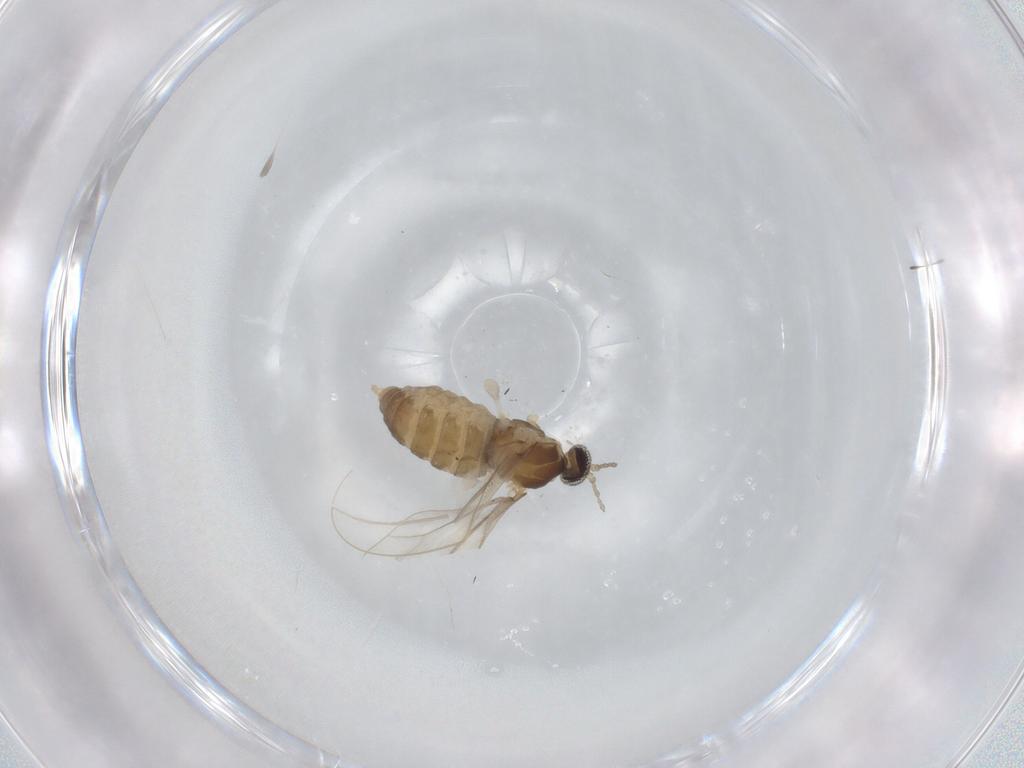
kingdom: Animalia
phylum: Arthropoda
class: Insecta
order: Diptera
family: Cecidomyiidae
